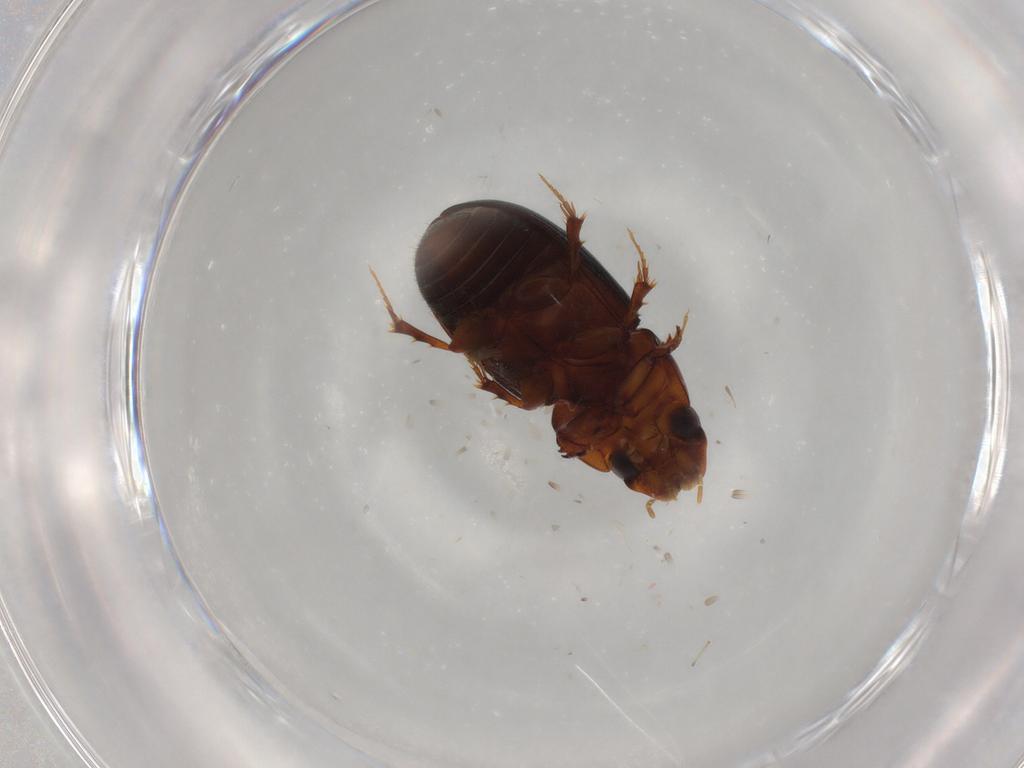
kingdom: Animalia
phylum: Arthropoda
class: Insecta
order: Coleoptera
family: Scarabaeidae
